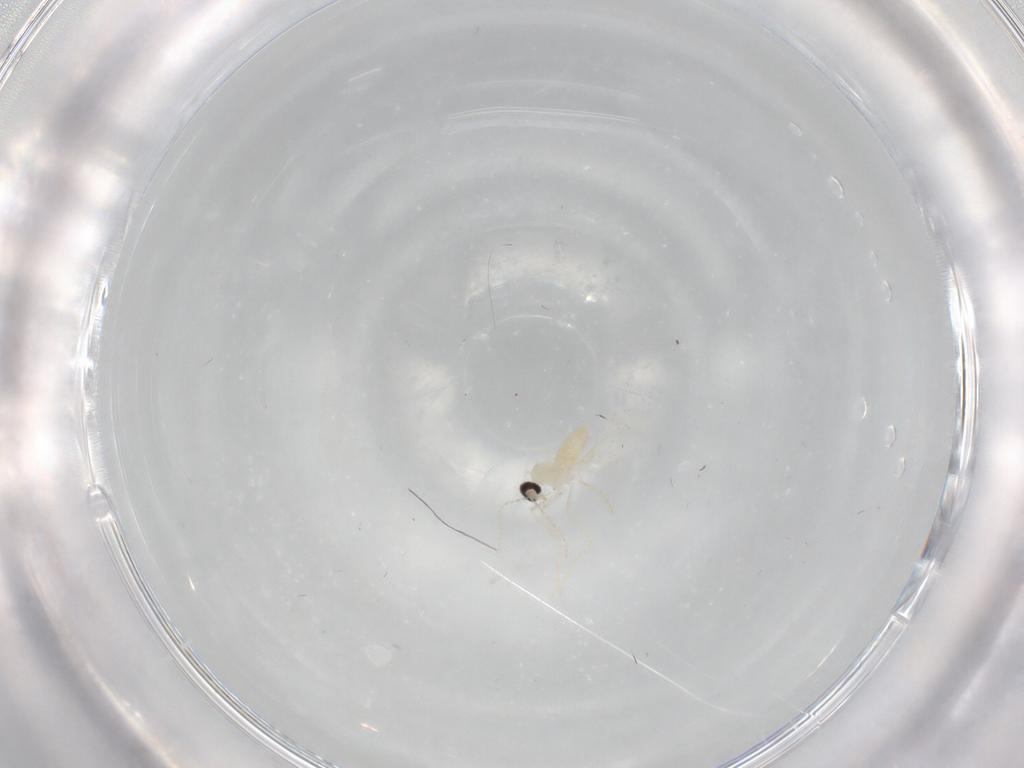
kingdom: Animalia
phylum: Arthropoda
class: Insecta
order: Diptera
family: Cecidomyiidae
